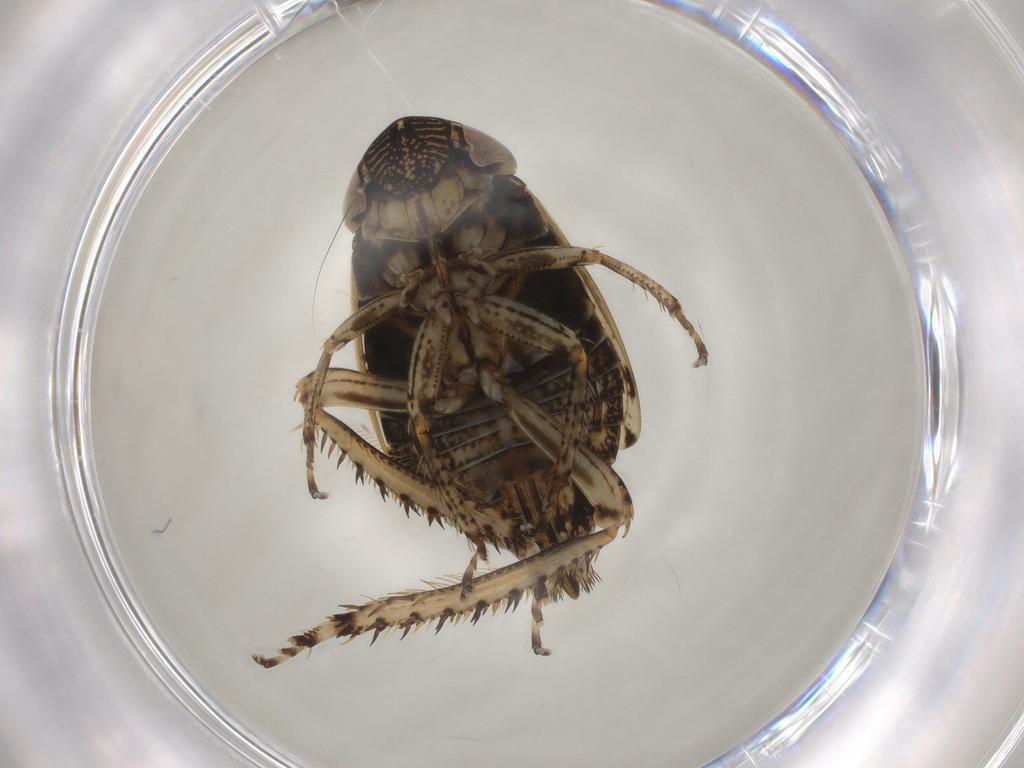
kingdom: Animalia
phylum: Arthropoda
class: Insecta
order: Hemiptera
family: Cicadellidae
